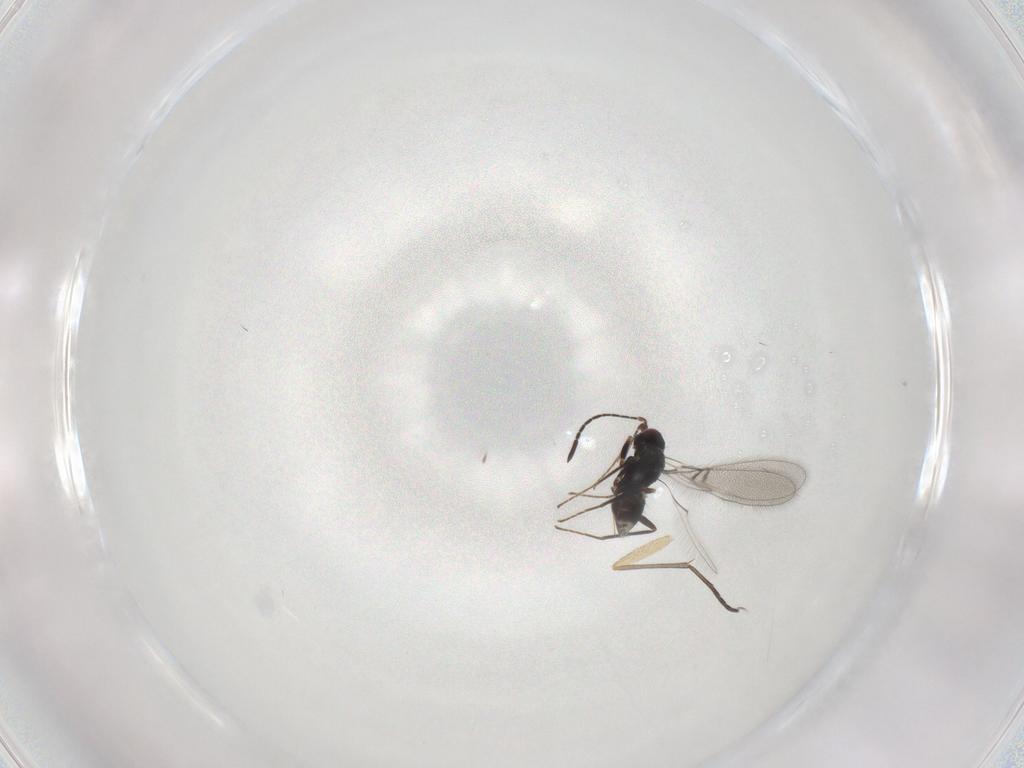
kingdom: Animalia
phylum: Arthropoda
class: Insecta
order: Hymenoptera
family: Mymaridae
